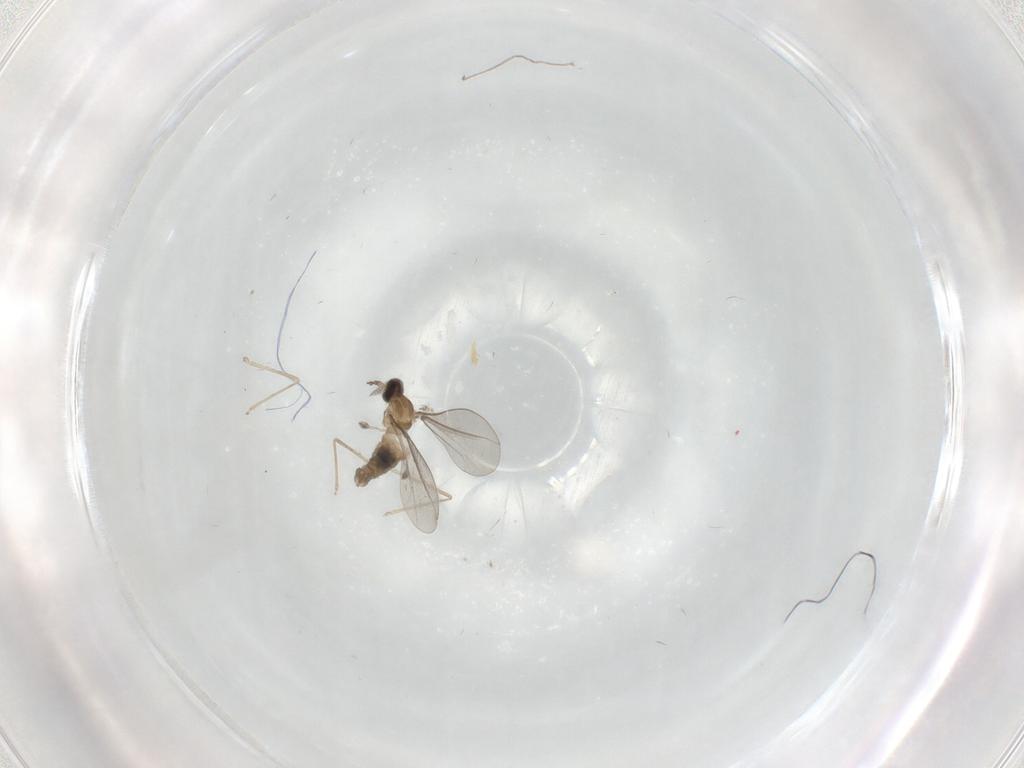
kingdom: Animalia
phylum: Arthropoda
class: Insecta
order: Diptera
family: Cecidomyiidae
